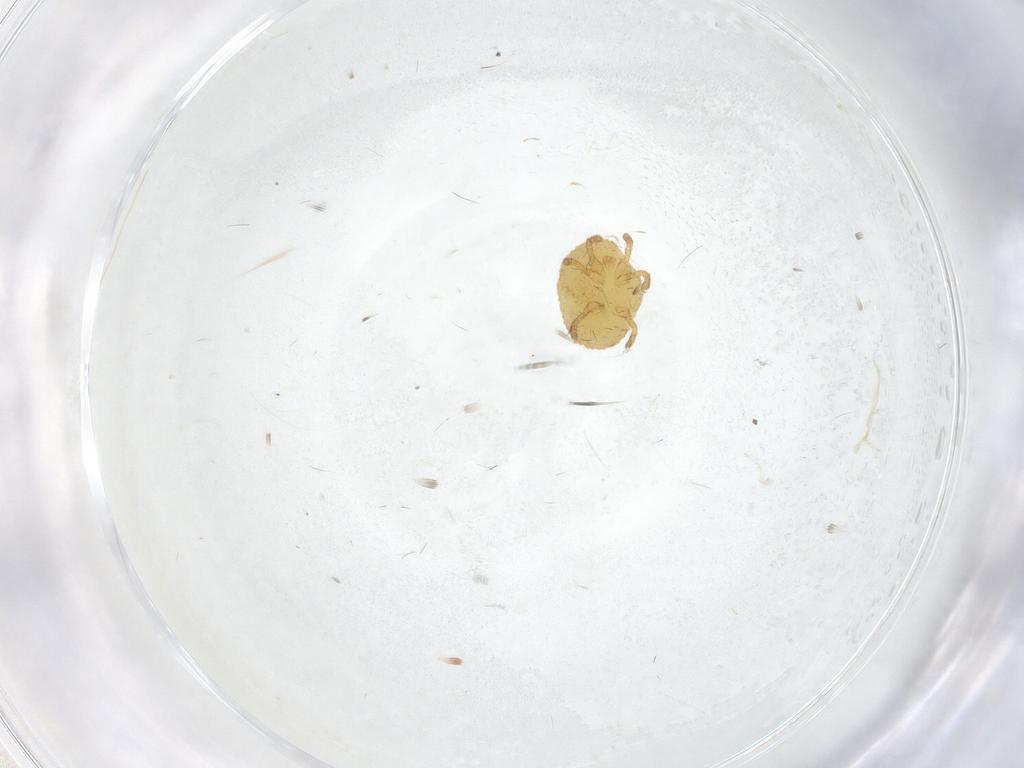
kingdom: Animalia
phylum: Arthropoda
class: Arachnida
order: Trombidiformes
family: Calyptostomatidae
